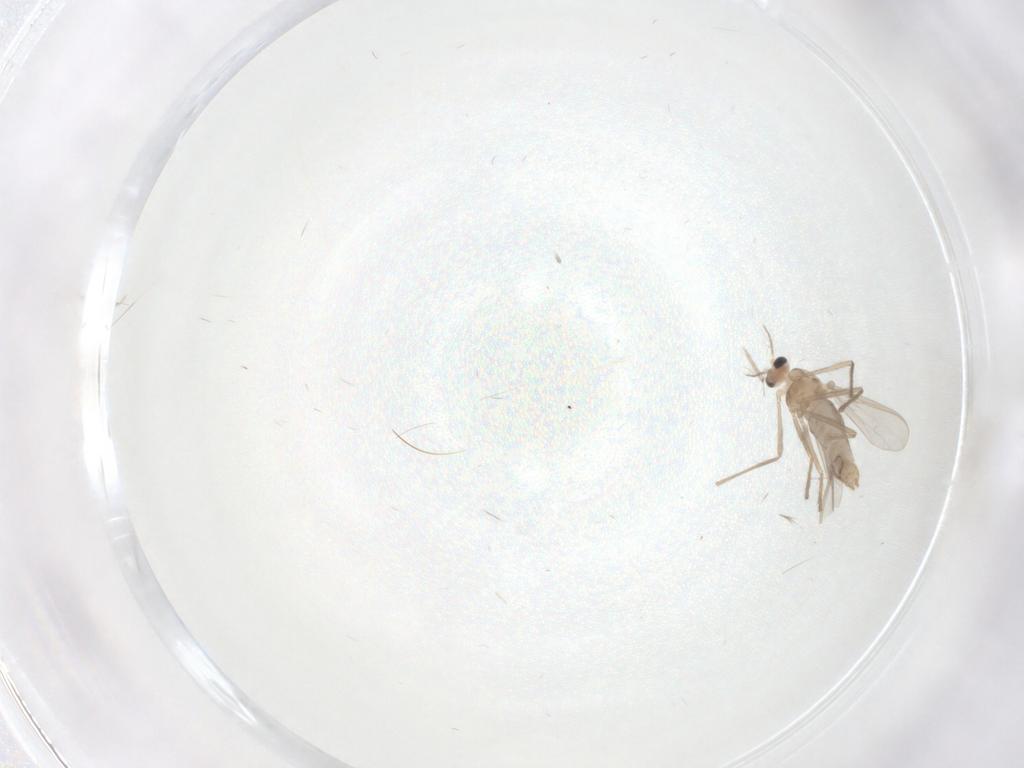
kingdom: Animalia
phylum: Arthropoda
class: Insecta
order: Diptera
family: Chironomidae
